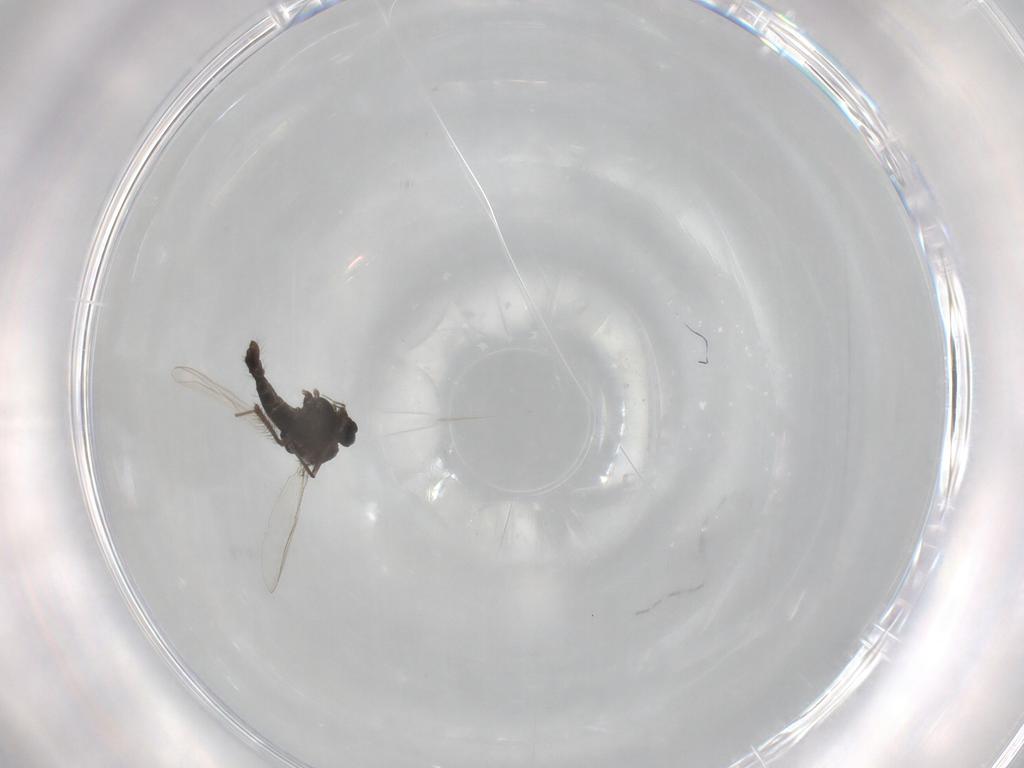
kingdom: Animalia
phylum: Arthropoda
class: Insecta
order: Diptera
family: Chironomidae
